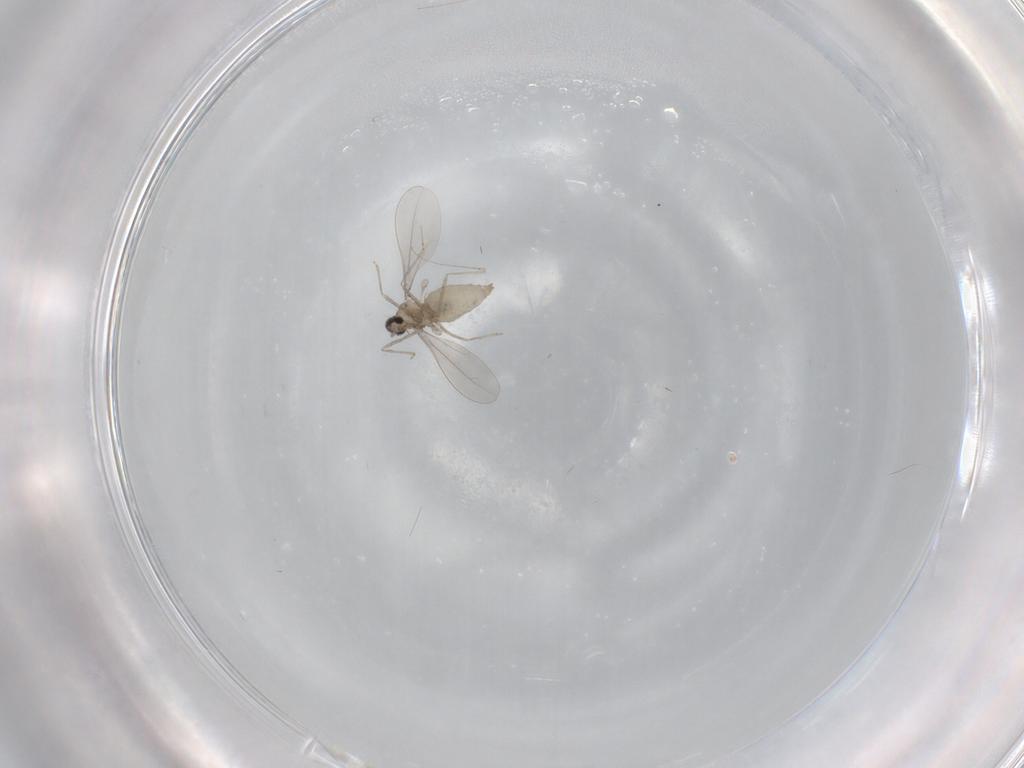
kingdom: Animalia
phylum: Arthropoda
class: Insecta
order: Diptera
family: Cecidomyiidae
